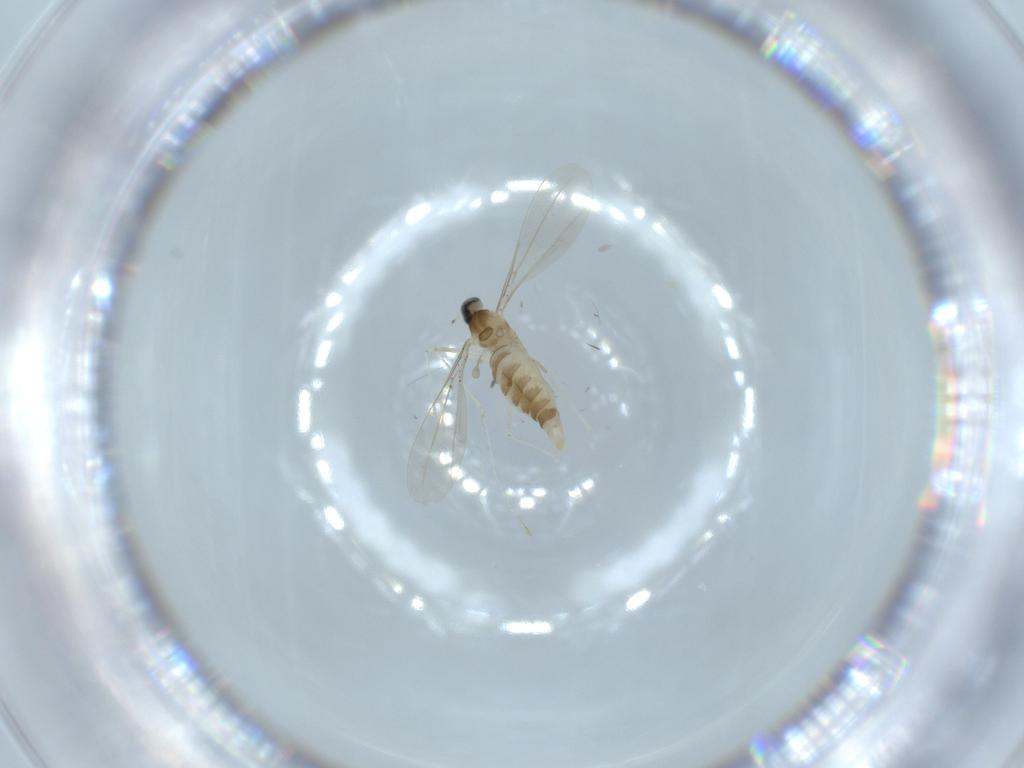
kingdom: Animalia
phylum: Arthropoda
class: Insecta
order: Diptera
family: Cecidomyiidae
